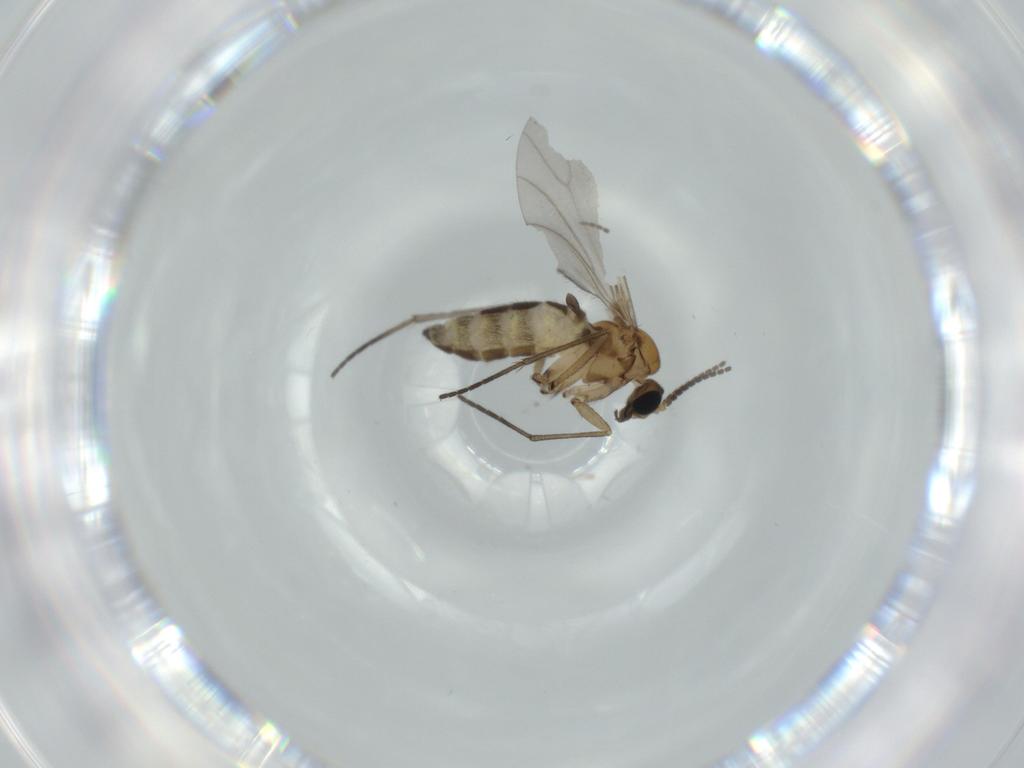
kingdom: Animalia
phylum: Arthropoda
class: Insecta
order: Diptera
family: Sciaridae
